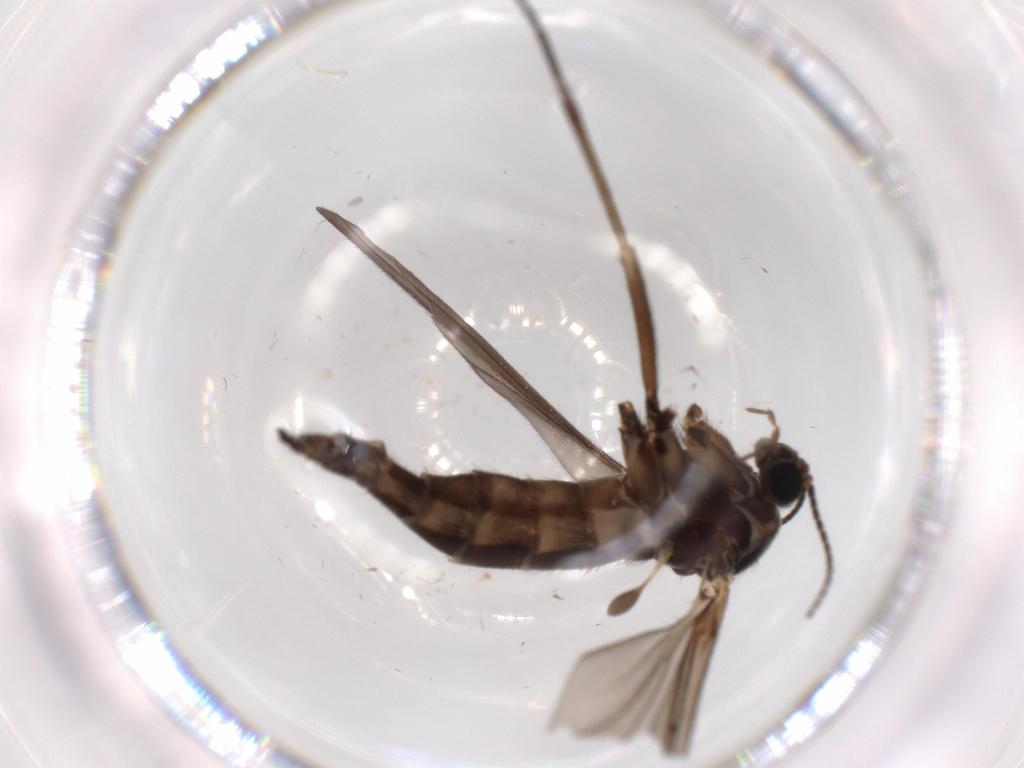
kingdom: Animalia
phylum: Arthropoda
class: Insecta
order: Diptera
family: Sciaridae
